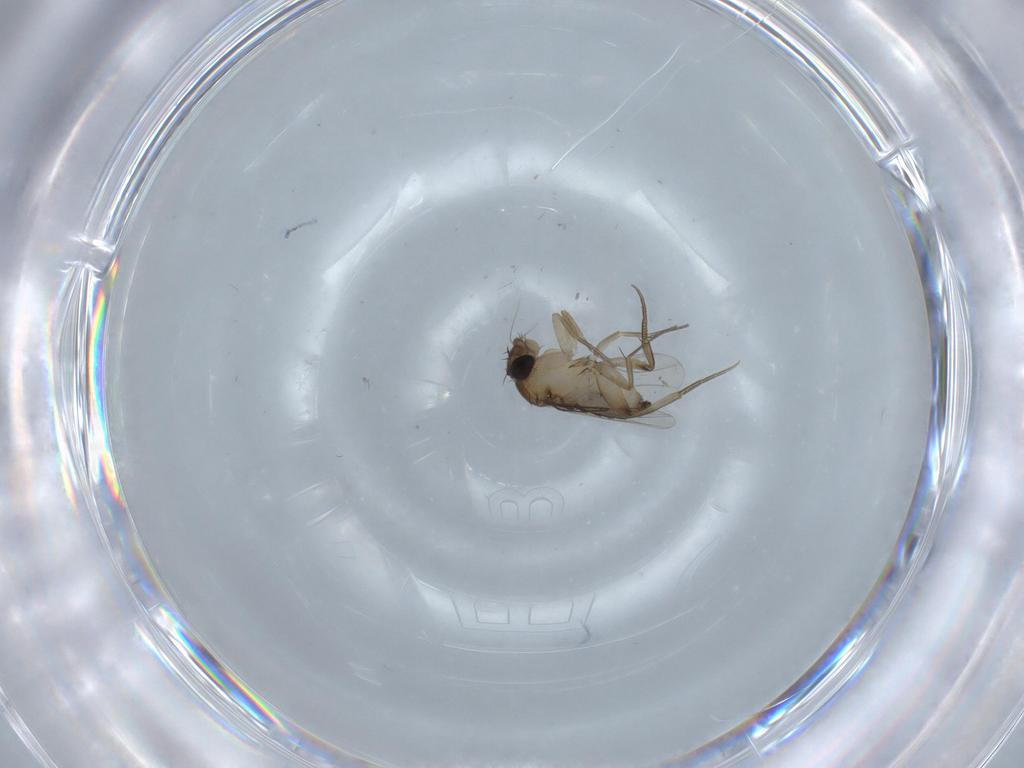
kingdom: Animalia
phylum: Arthropoda
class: Insecta
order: Diptera
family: Phoridae
